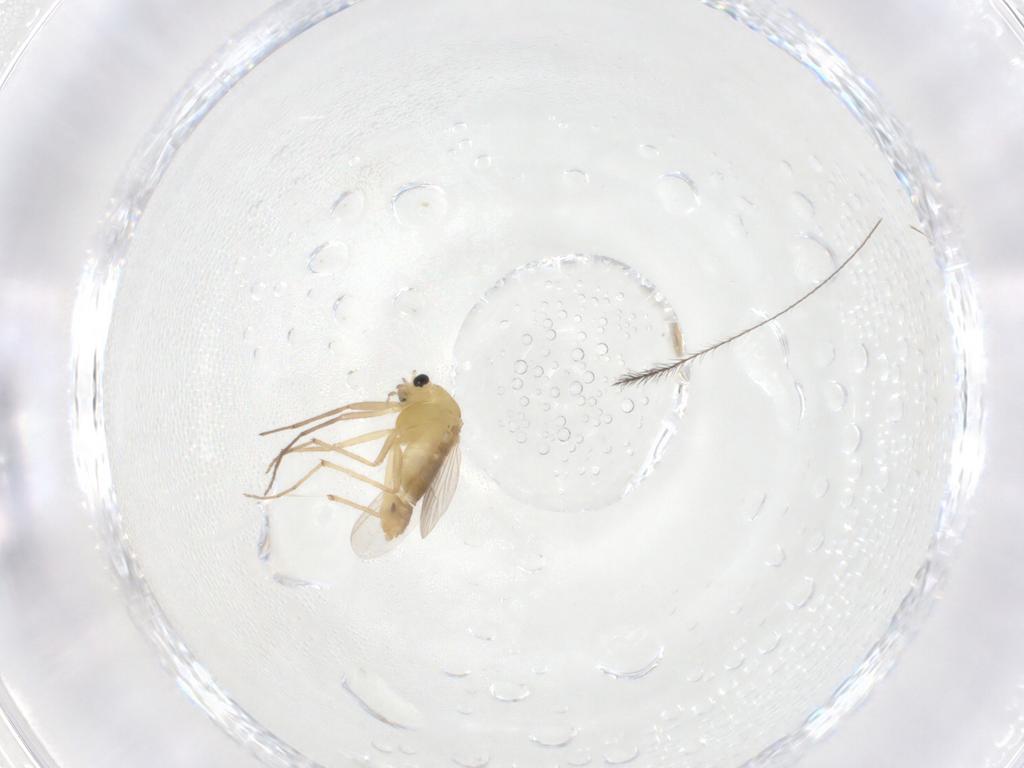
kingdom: Animalia
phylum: Arthropoda
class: Insecta
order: Diptera
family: Chironomidae
